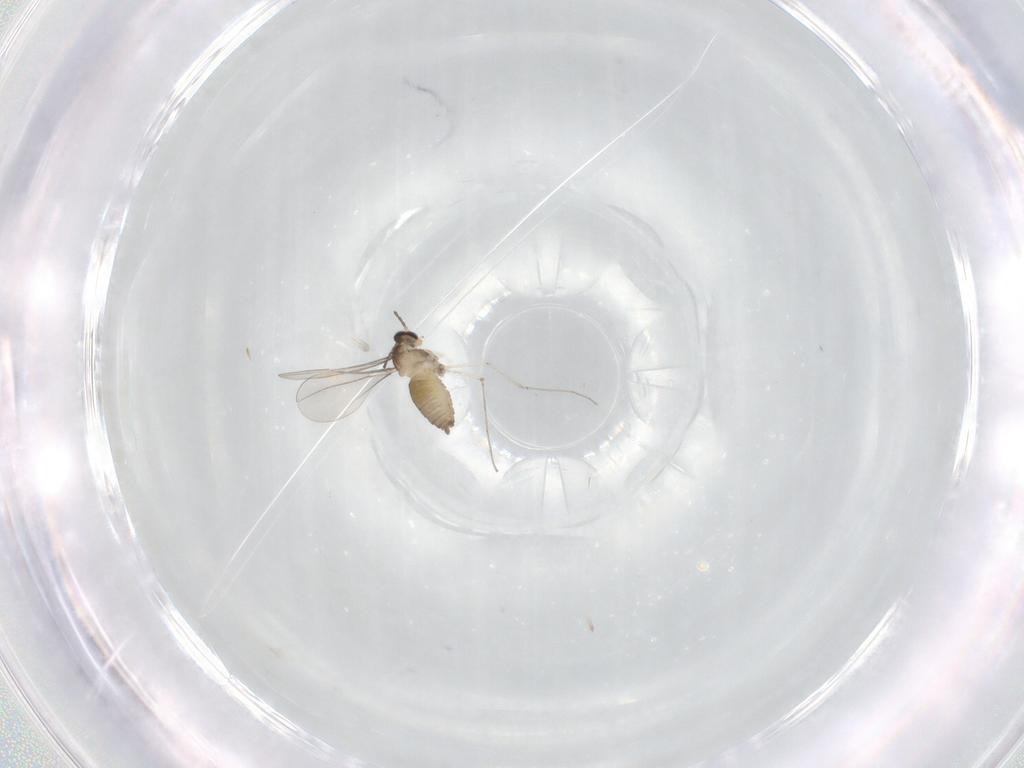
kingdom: Animalia
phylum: Arthropoda
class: Insecta
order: Diptera
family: Cecidomyiidae
